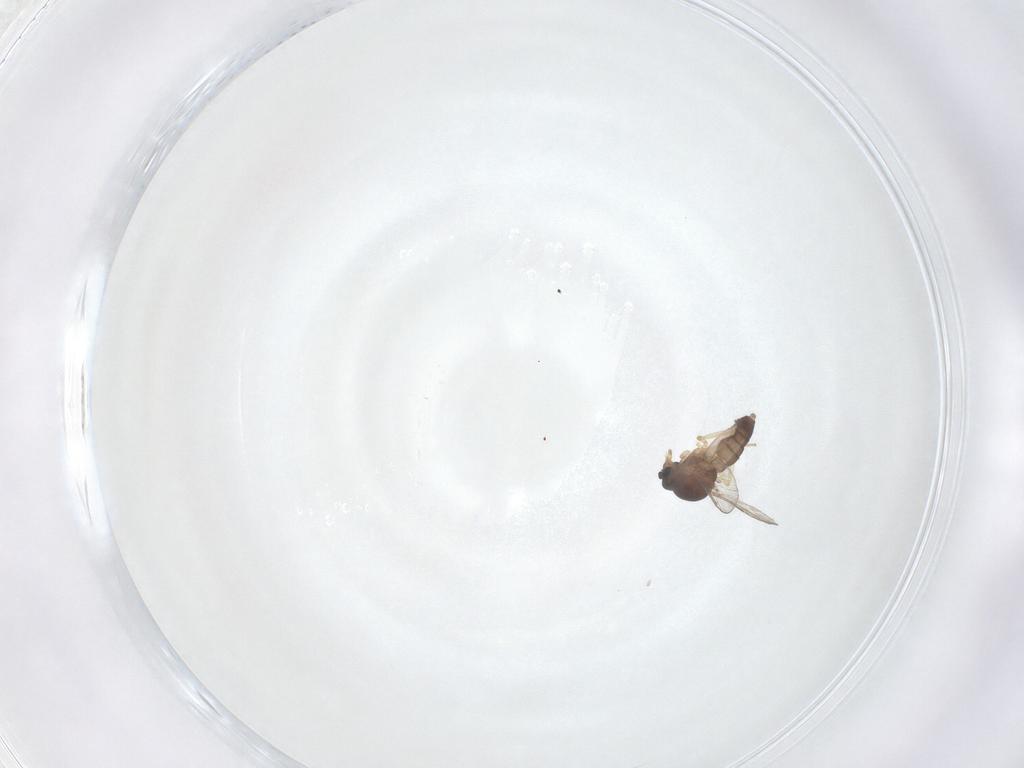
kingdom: Animalia
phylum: Arthropoda
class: Insecta
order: Diptera
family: Ceratopogonidae
